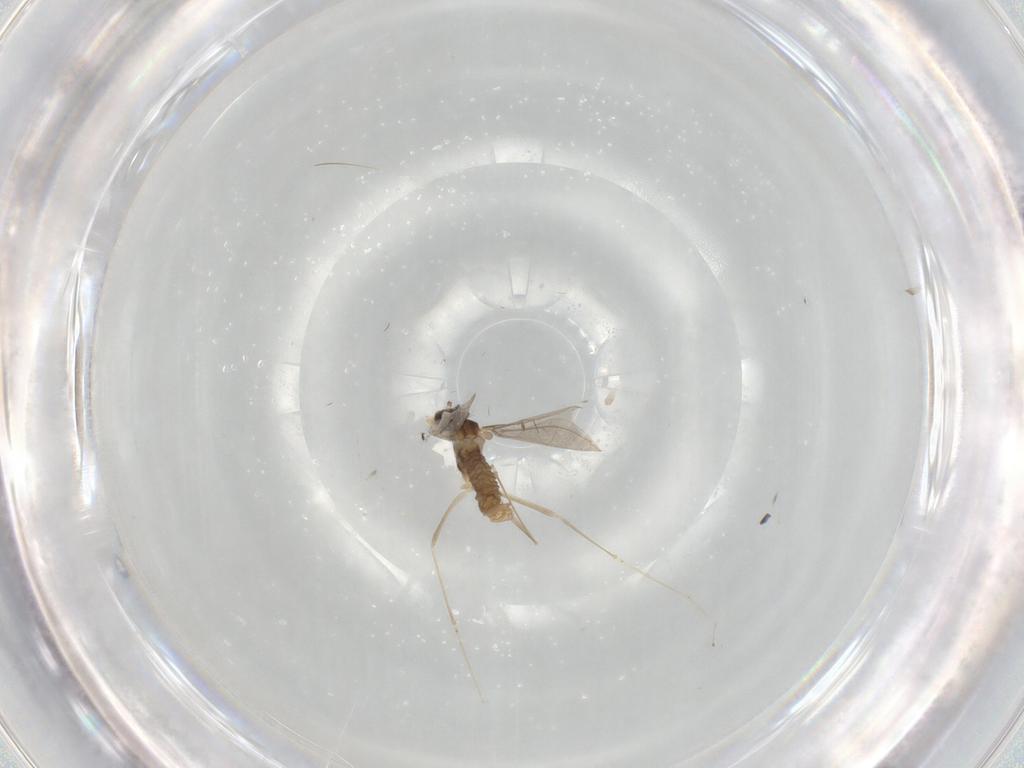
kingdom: Animalia
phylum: Arthropoda
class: Insecta
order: Diptera
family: Cecidomyiidae
